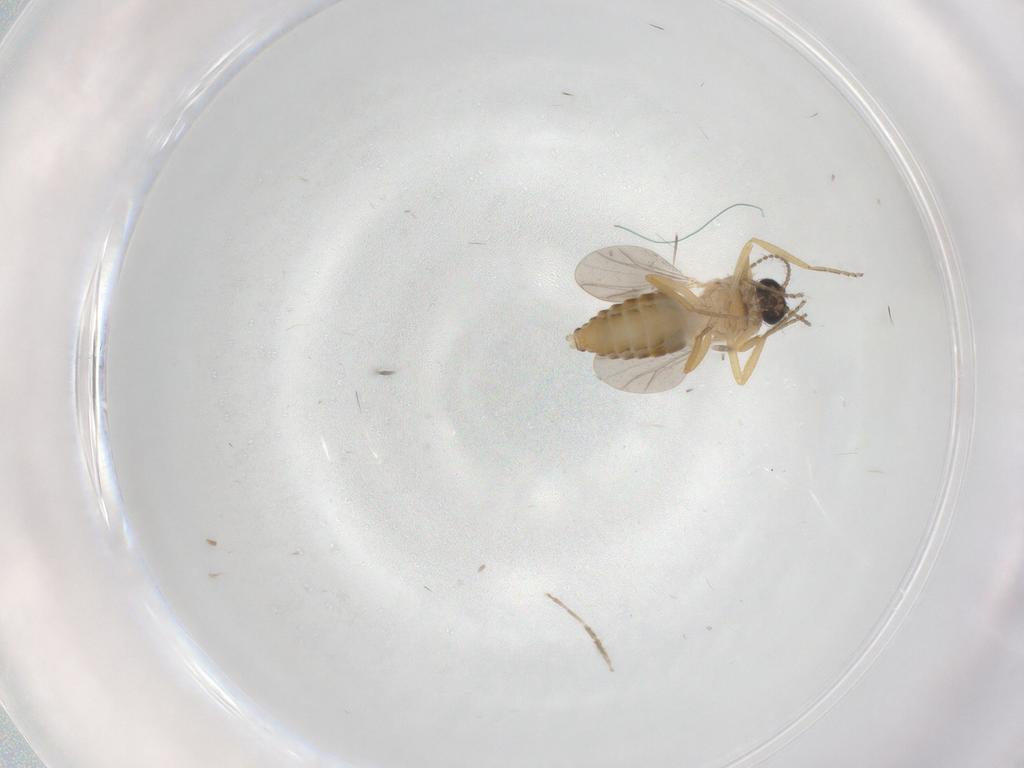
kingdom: Animalia
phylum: Arthropoda
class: Insecta
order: Diptera
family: Ceratopogonidae
